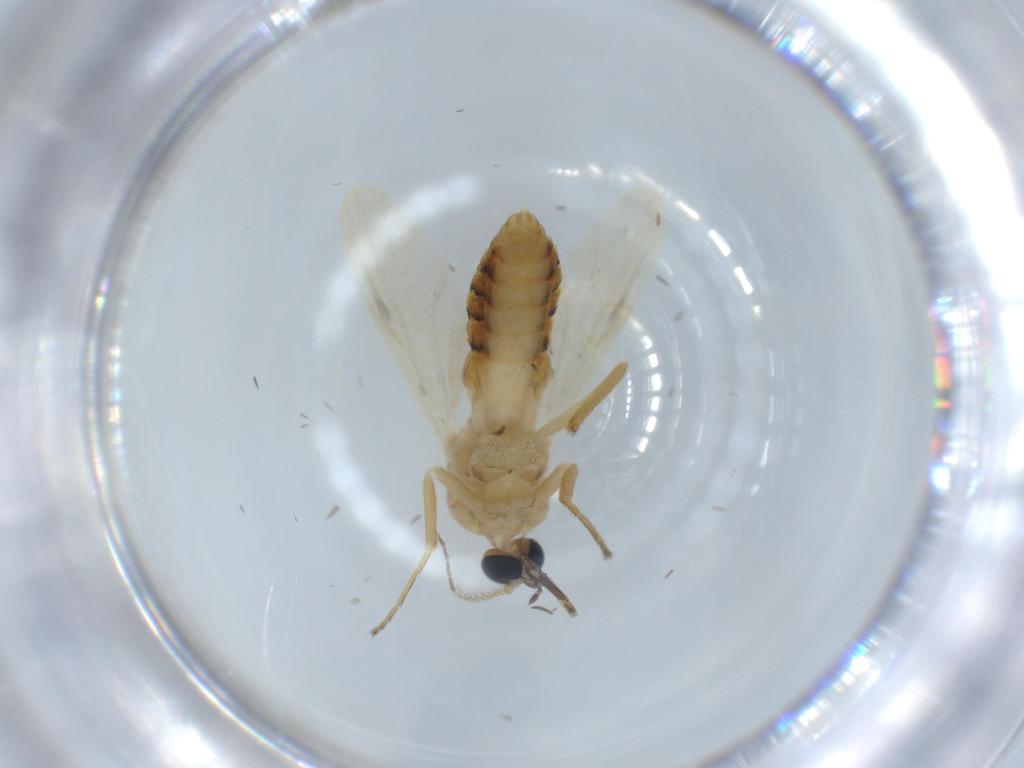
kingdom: Animalia
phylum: Arthropoda
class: Insecta
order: Diptera
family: Ceratopogonidae
